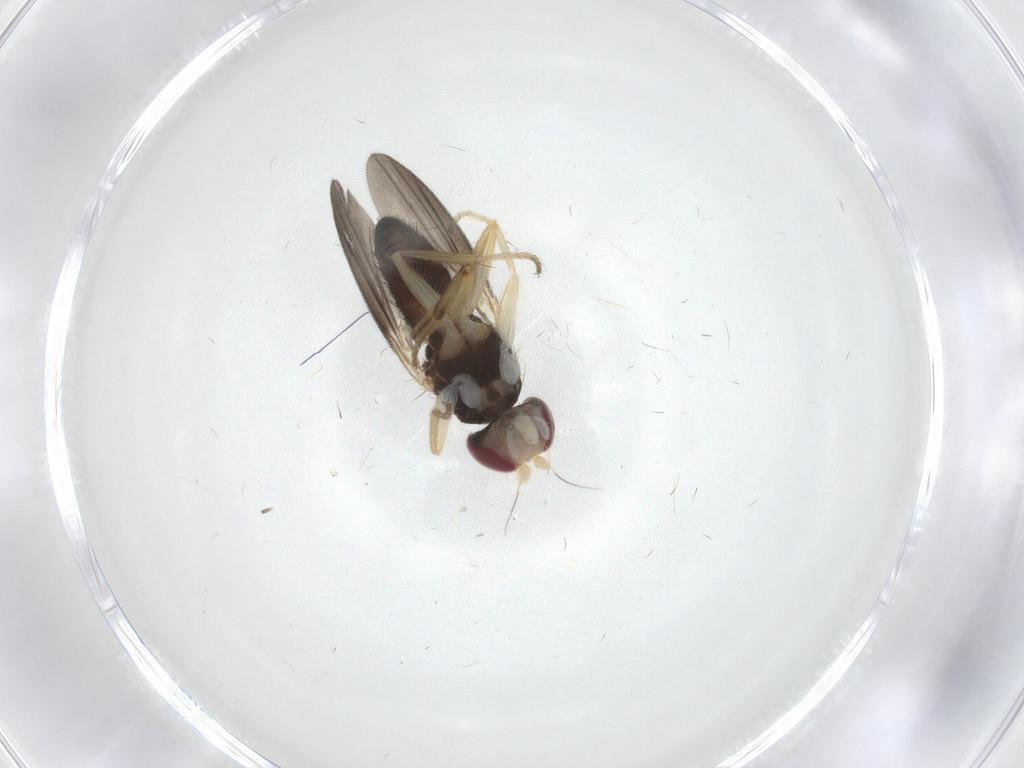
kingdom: Animalia
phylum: Arthropoda
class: Insecta
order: Diptera
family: Clusiidae
